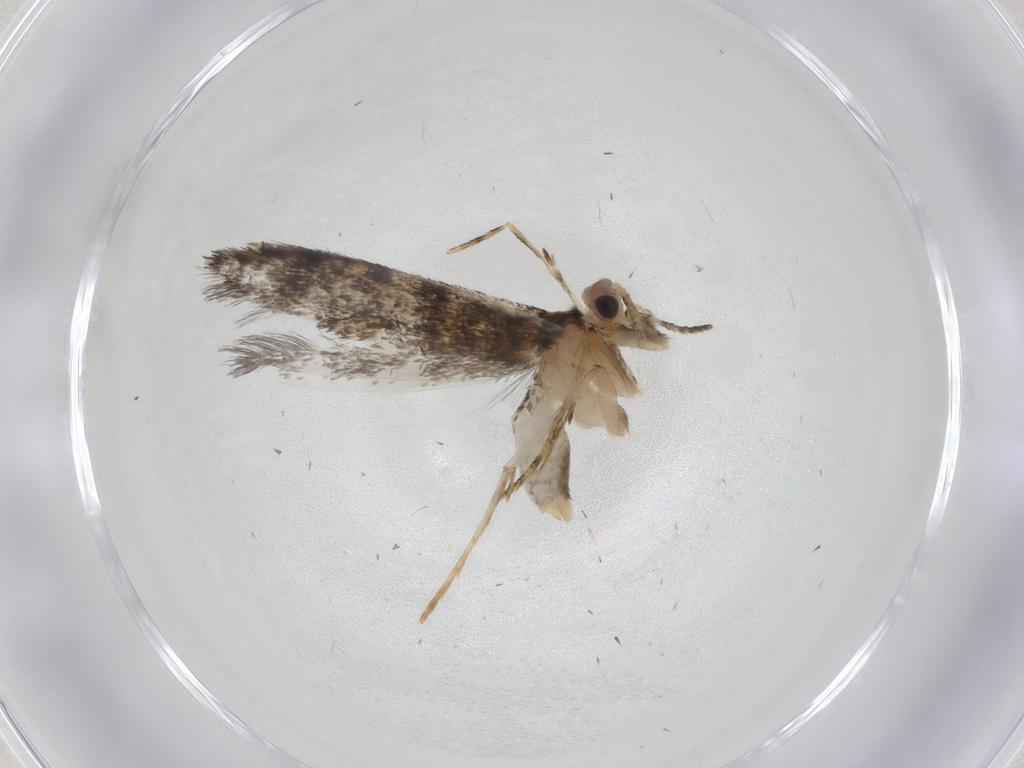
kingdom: Animalia
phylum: Arthropoda
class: Insecta
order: Lepidoptera
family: Tineidae
